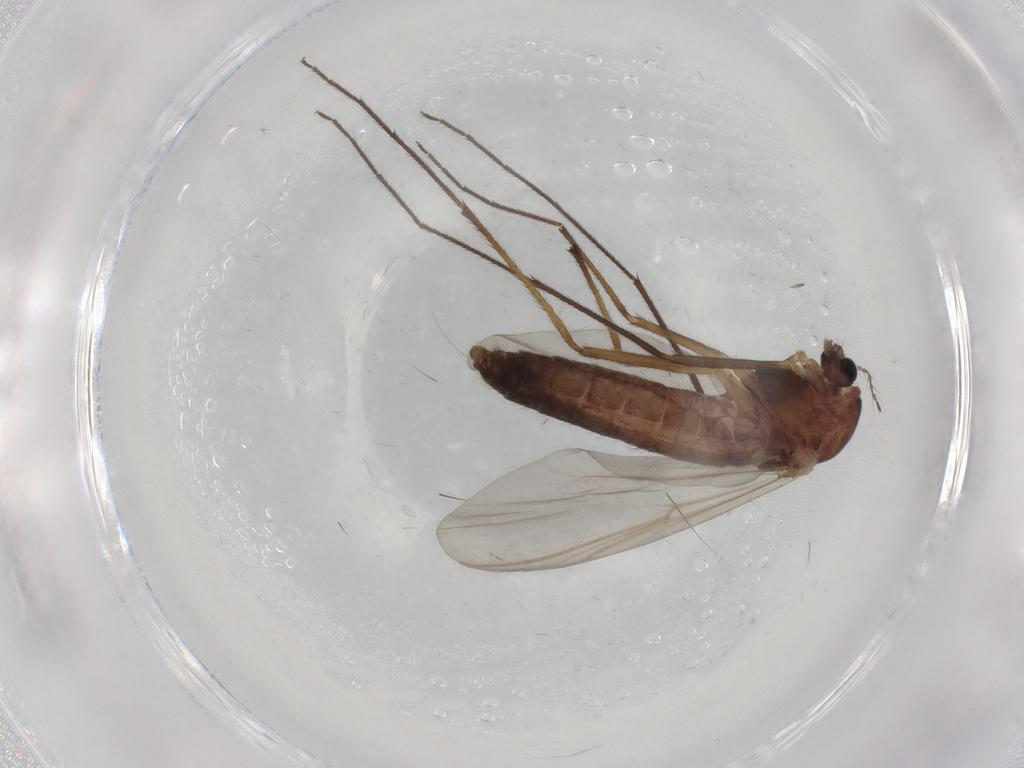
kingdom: Animalia
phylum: Arthropoda
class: Insecta
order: Diptera
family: Chironomidae
